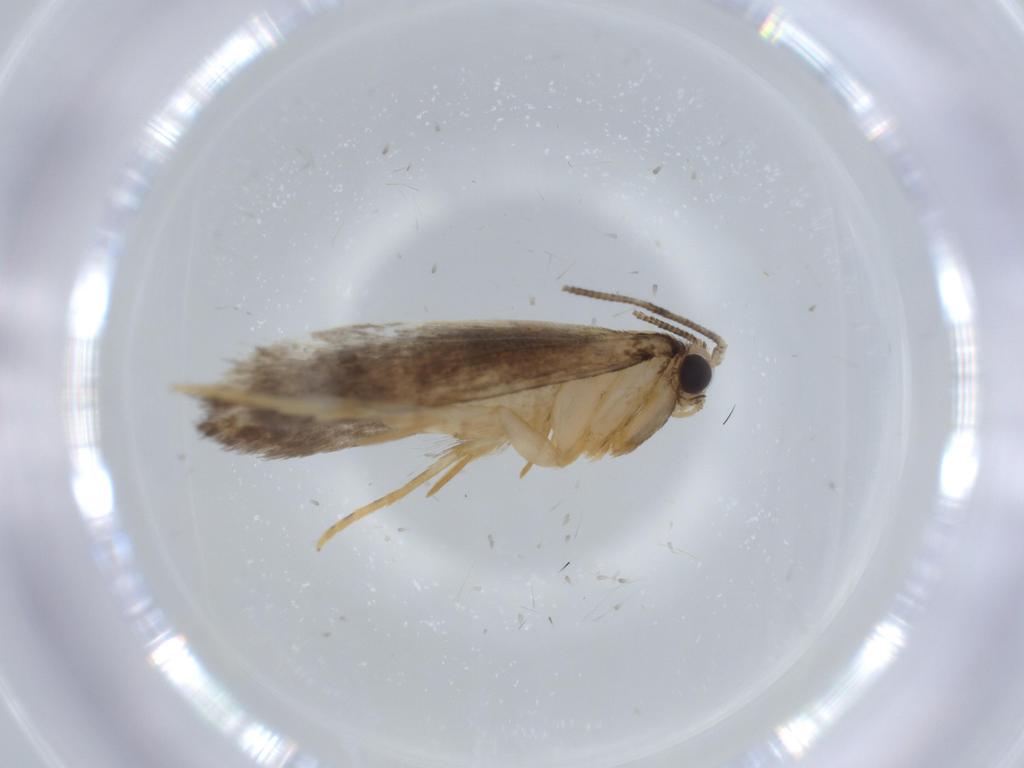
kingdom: Animalia
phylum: Arthropoda
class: Insecta
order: Lepidoptera
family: Tineidae
